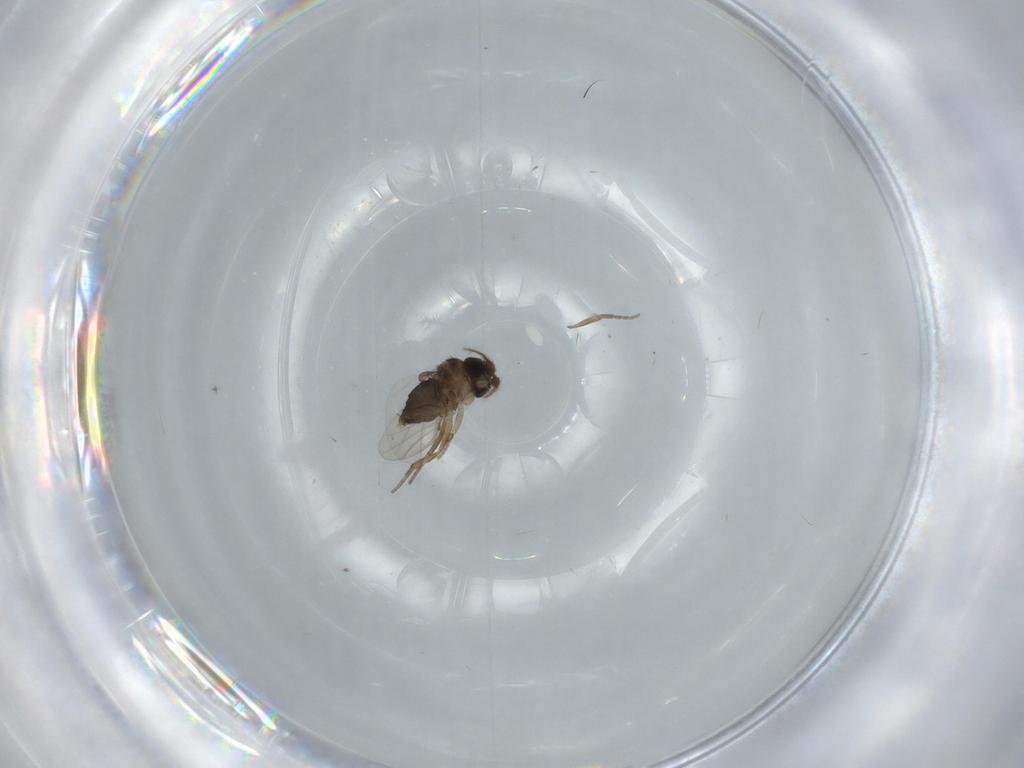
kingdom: Animalia
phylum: Arthropoda
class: Insecta
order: Diptera
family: Phoridae
